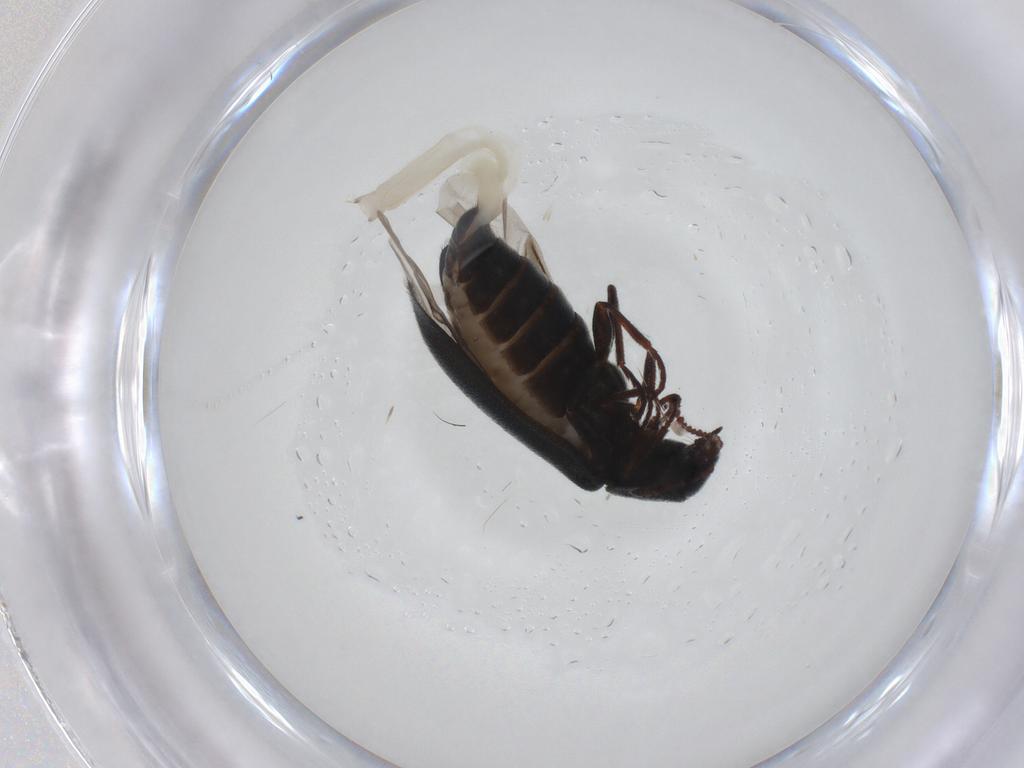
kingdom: Animalia
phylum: Arthropoda
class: Insecta
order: Coleoptera
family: Melyridae
